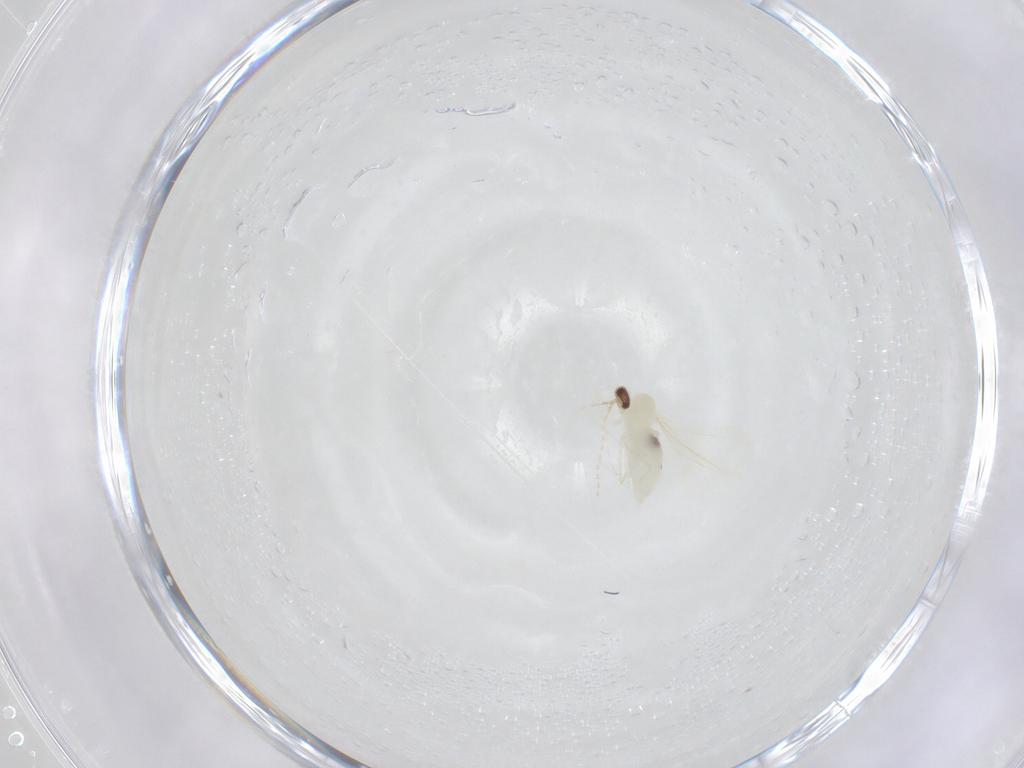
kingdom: Animalia
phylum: Arthropoda
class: Insecta
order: Diptera
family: Cecidomyiidae
